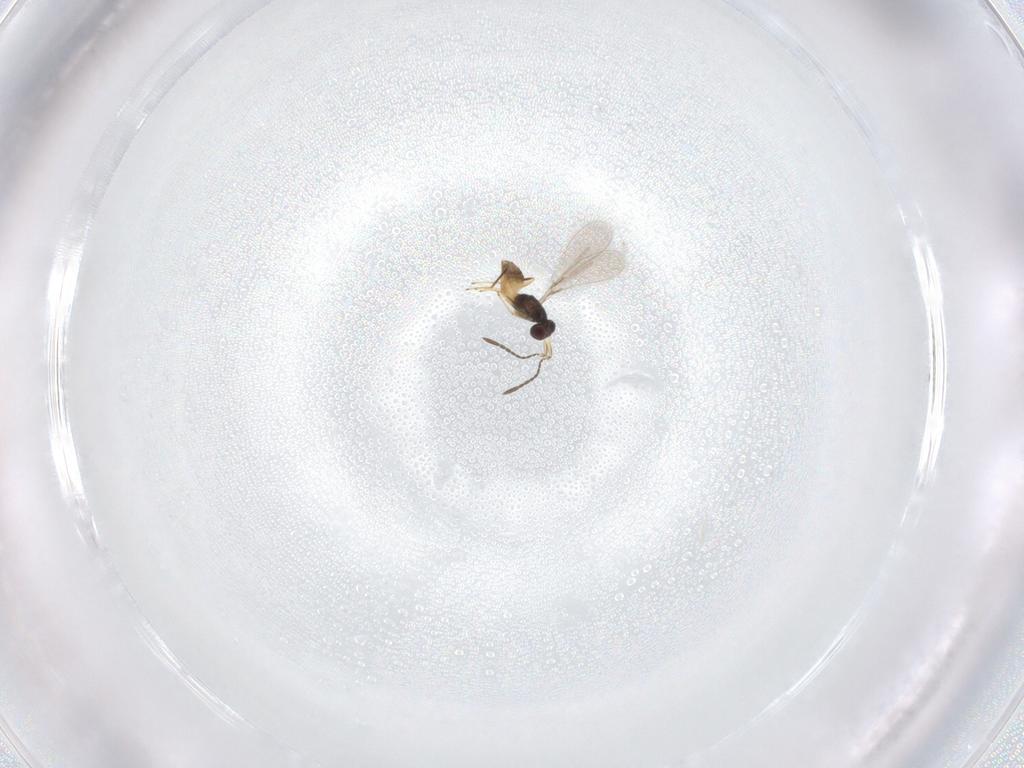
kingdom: Animalia
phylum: Arthropoda
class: Insecta
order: Hymenoptera
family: Mymaridae
